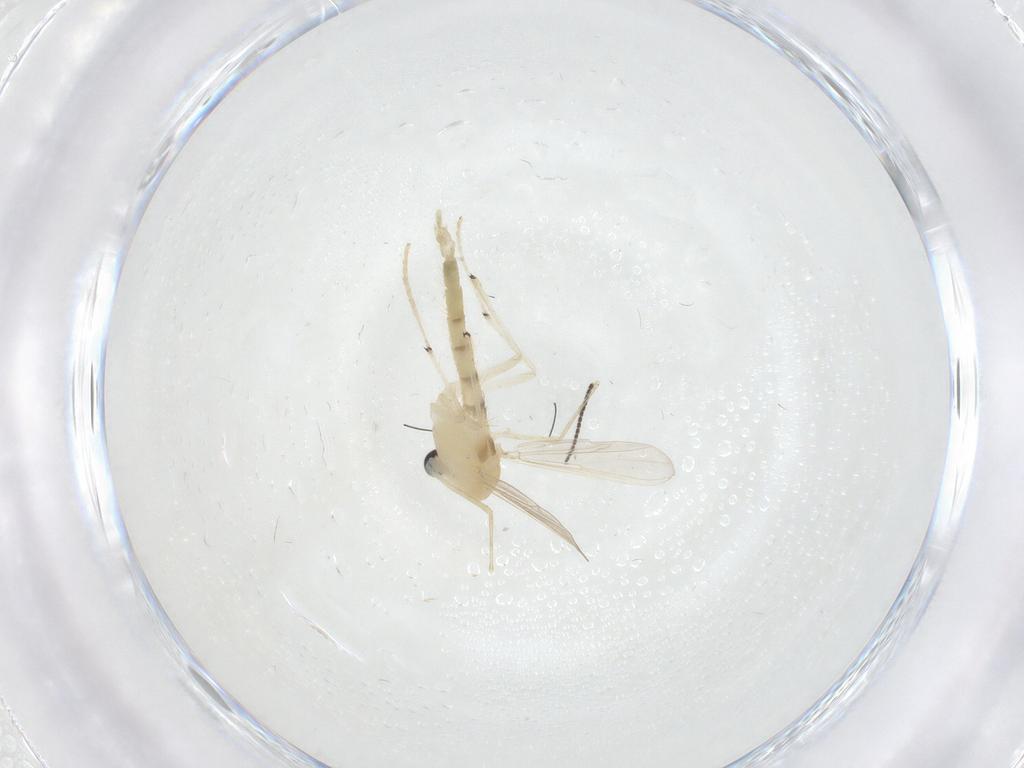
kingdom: Animalia
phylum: Arthropoda
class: Insecta
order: Diptera
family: Chironomidae
